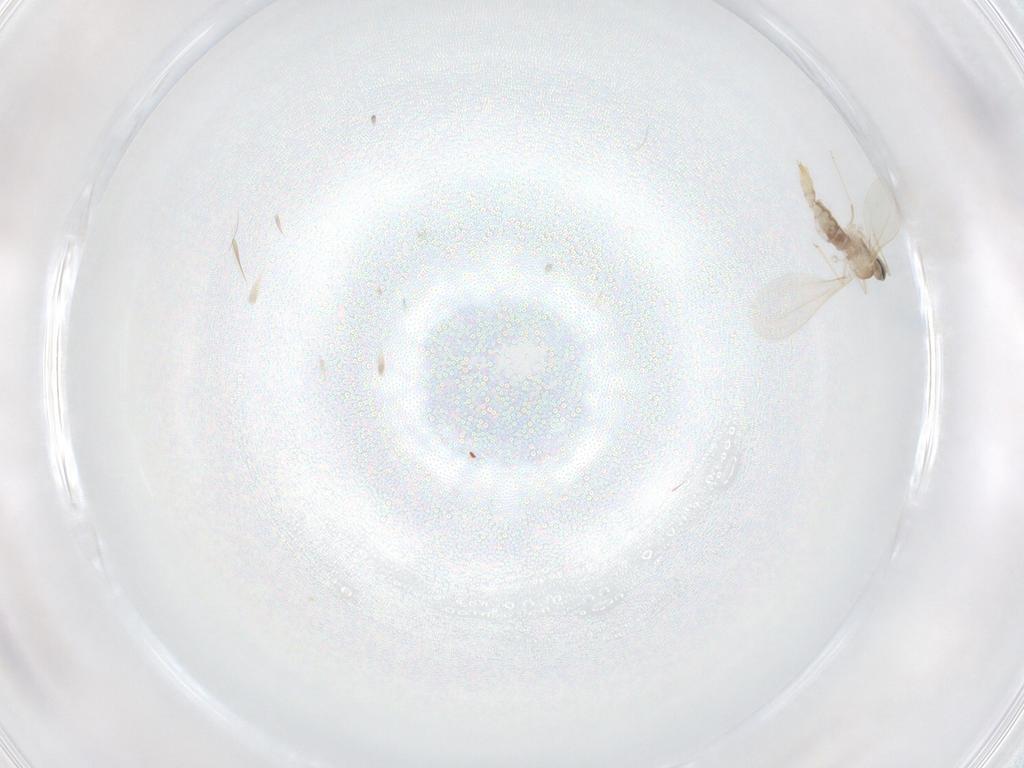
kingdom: Animalia
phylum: Arthropoda
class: Insecta
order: Diptera
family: Cecidomyiidae
